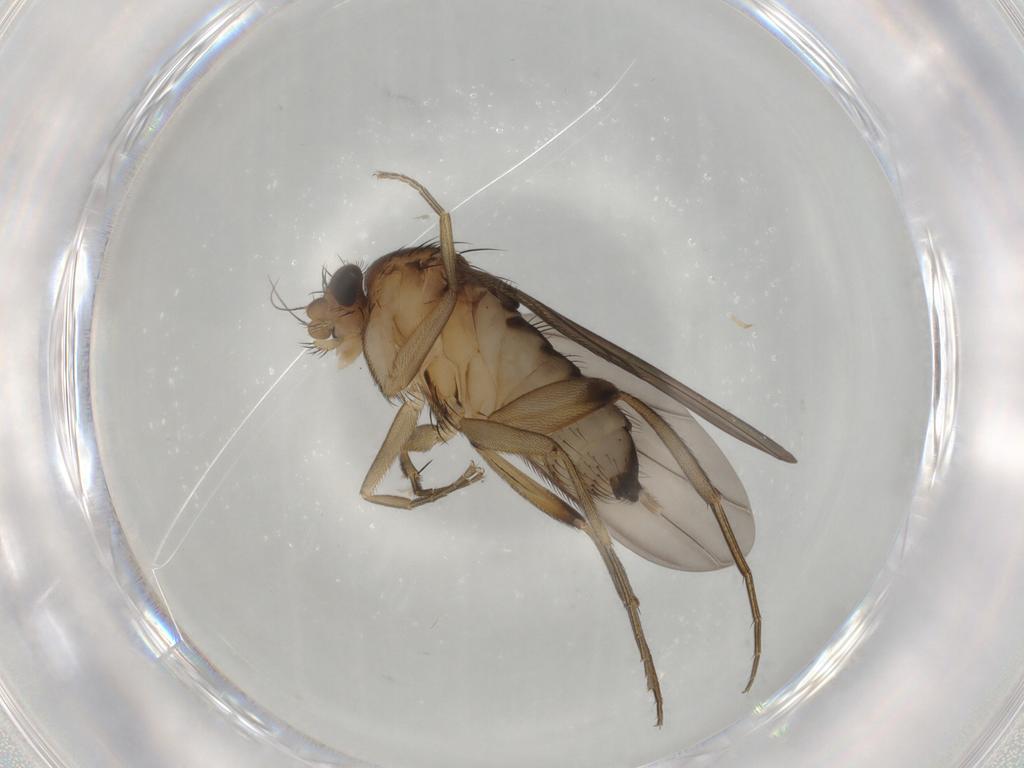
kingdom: Animalia
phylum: Arthropoda
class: Insecta
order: Diptera
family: Phoridae
